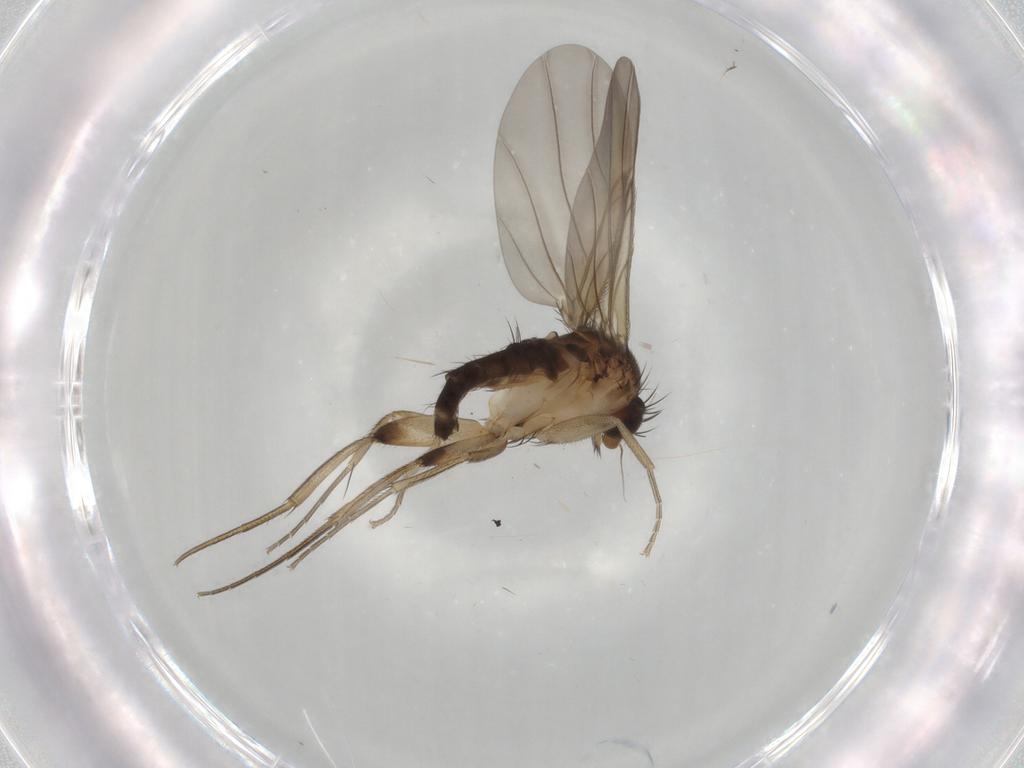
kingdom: Animalia
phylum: Arthropoda
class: Insecta
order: Diptera
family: Phoridae
